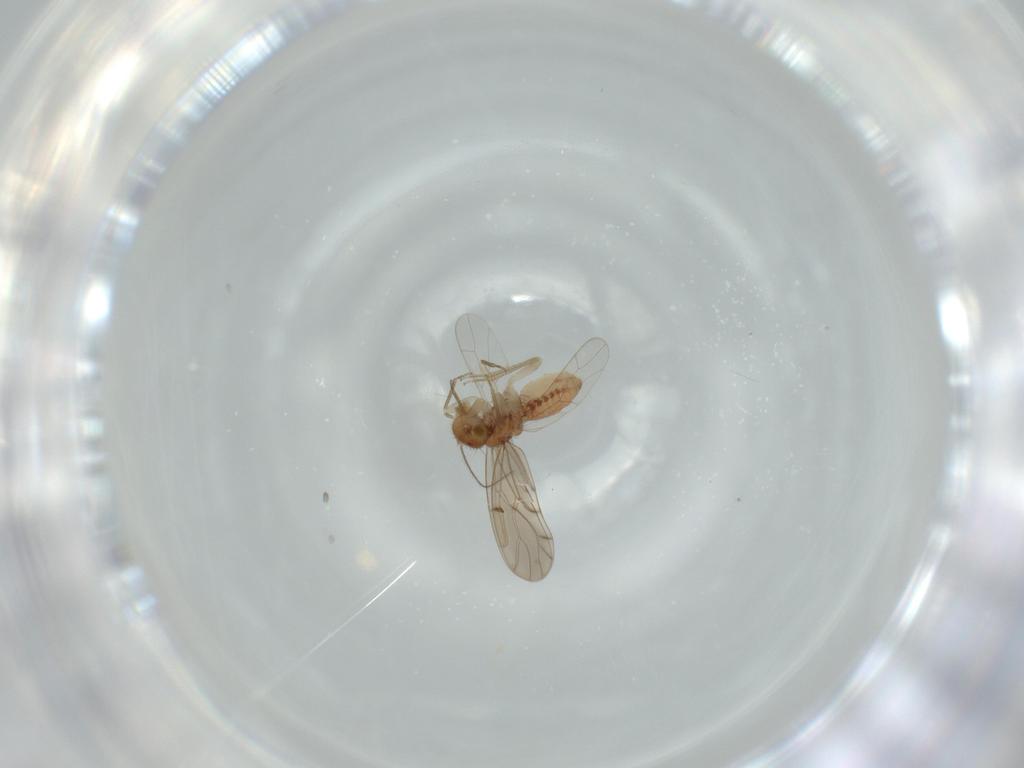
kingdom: Animalia
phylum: Arthropoda
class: Insecta
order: Psocodea
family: Ectopsocidae
